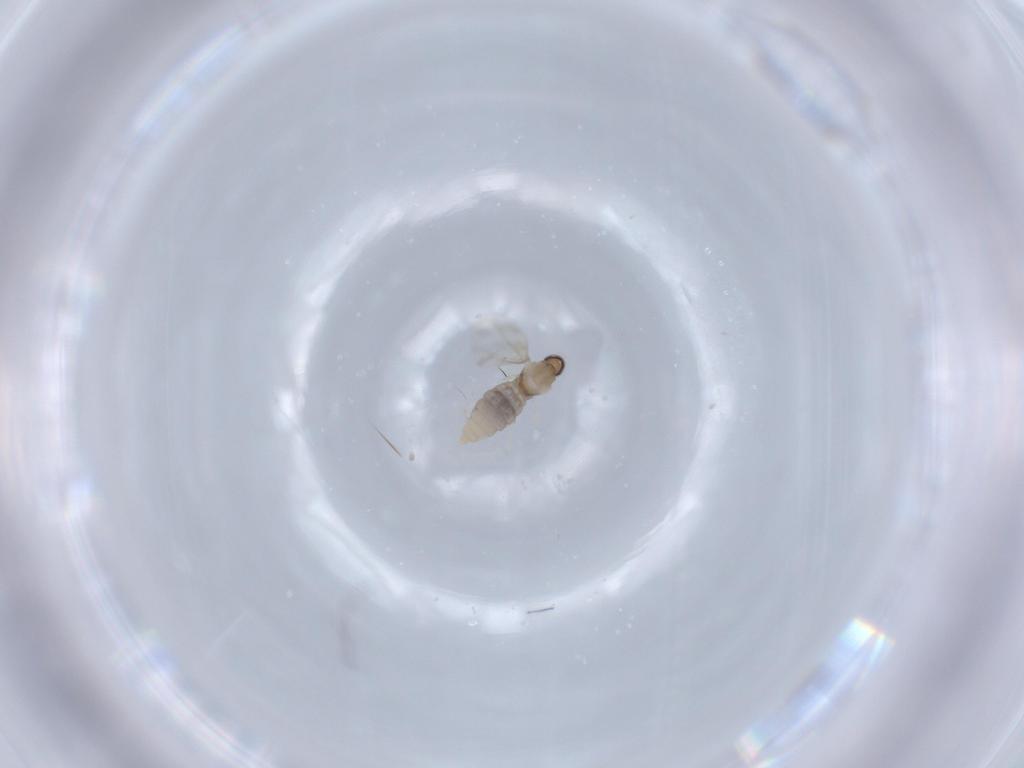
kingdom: Animalia
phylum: Arthropoda
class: Insecta
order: Diptera
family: Cecidomyiidae
